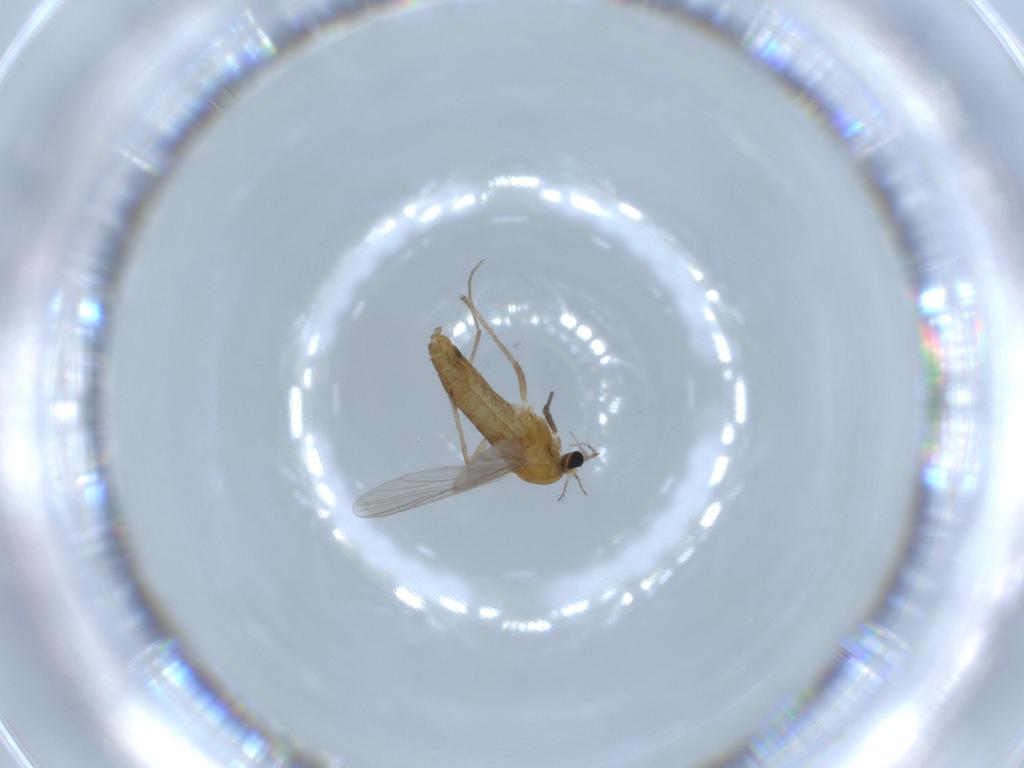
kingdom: Animalia
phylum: Arthropoda
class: Insecta
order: Diptera
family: Chironomidae
